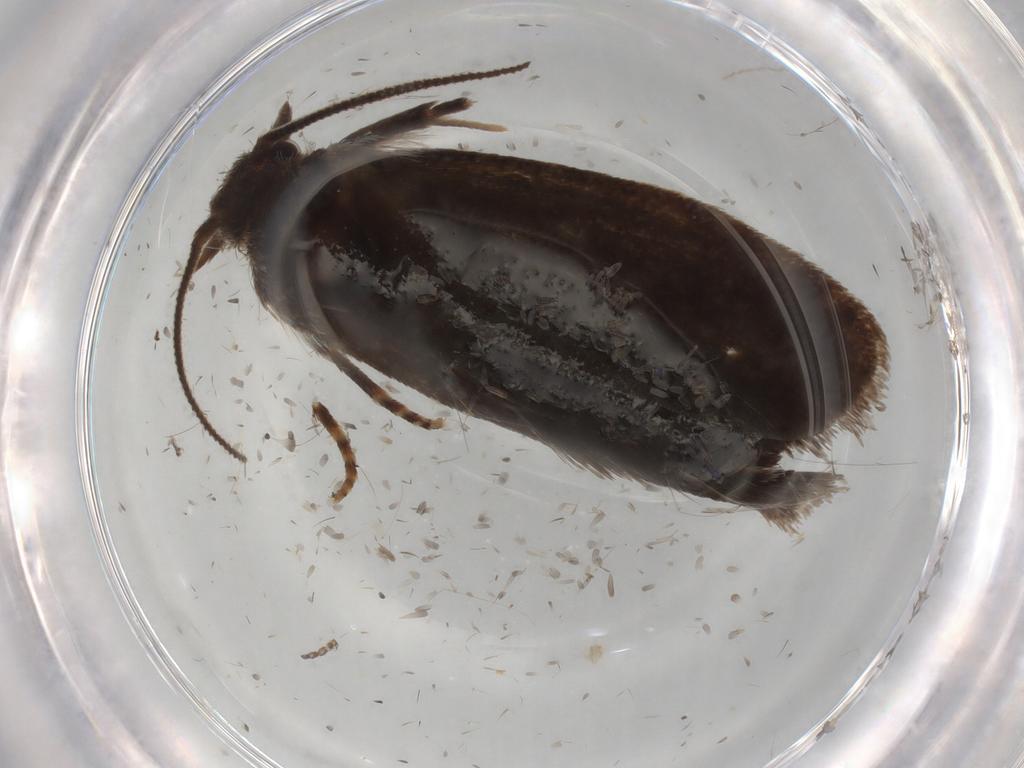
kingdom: Animalia
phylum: Arthropoda
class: Insecta
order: Lepidoptera
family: Tineidae
